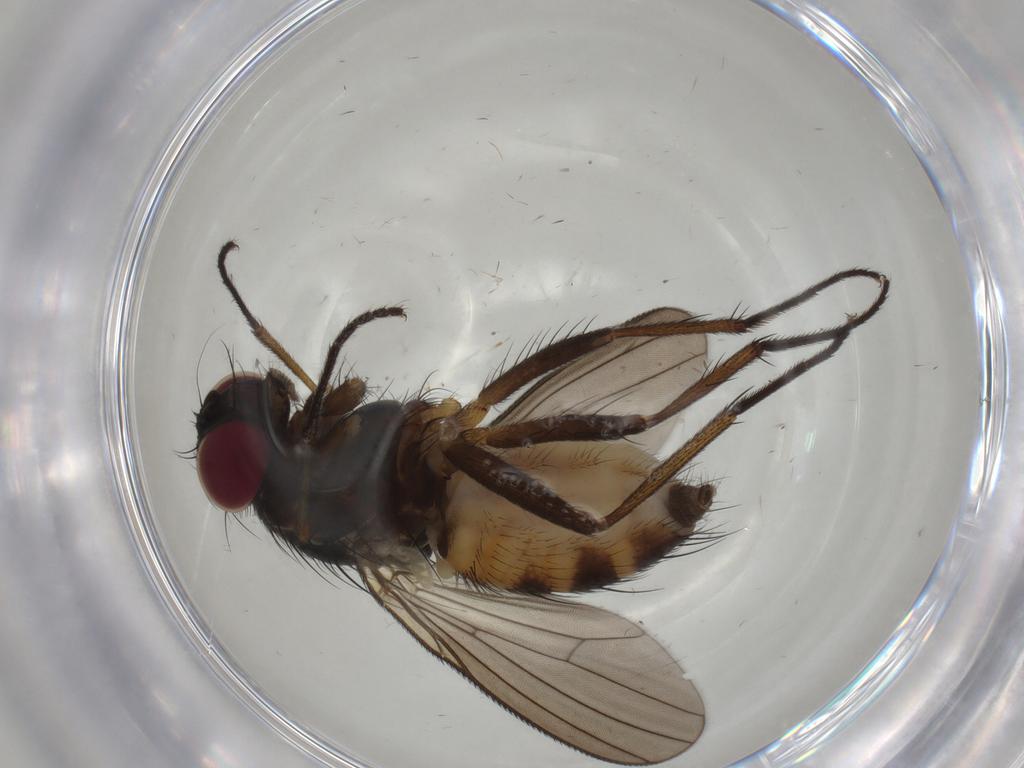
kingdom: Animalia
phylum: Arthropoda
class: Insecta
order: Diptera
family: Muscidae
